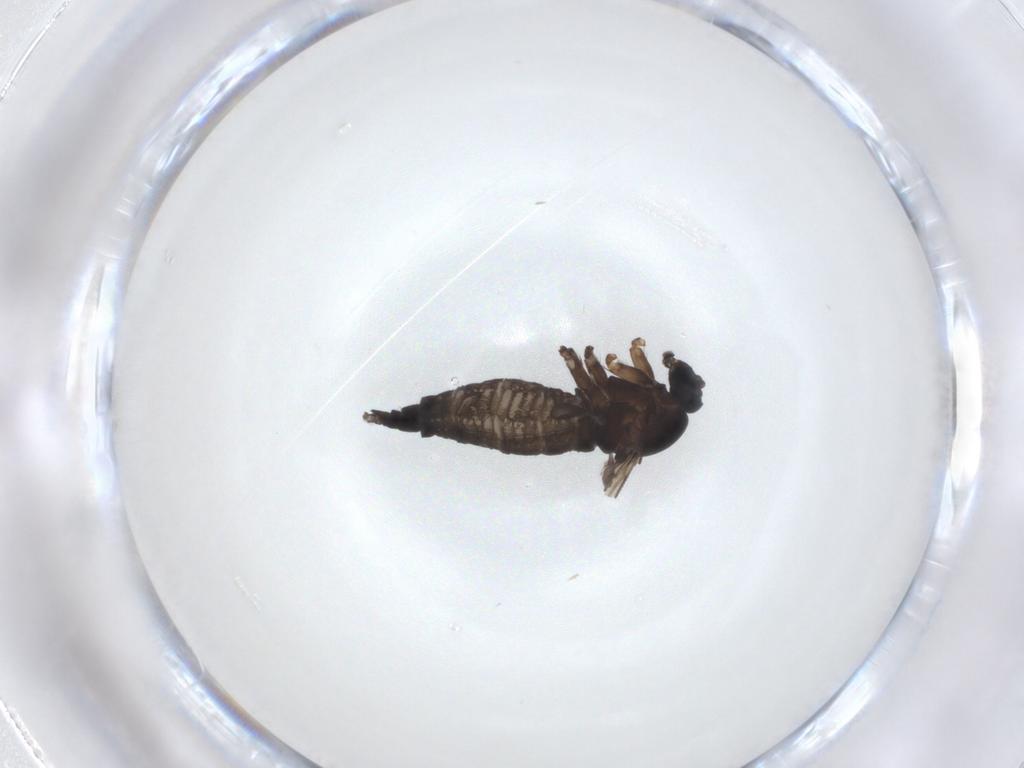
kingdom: Animalia
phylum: Arthropoda
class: Insecta
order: Diptera
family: Sciaridae
